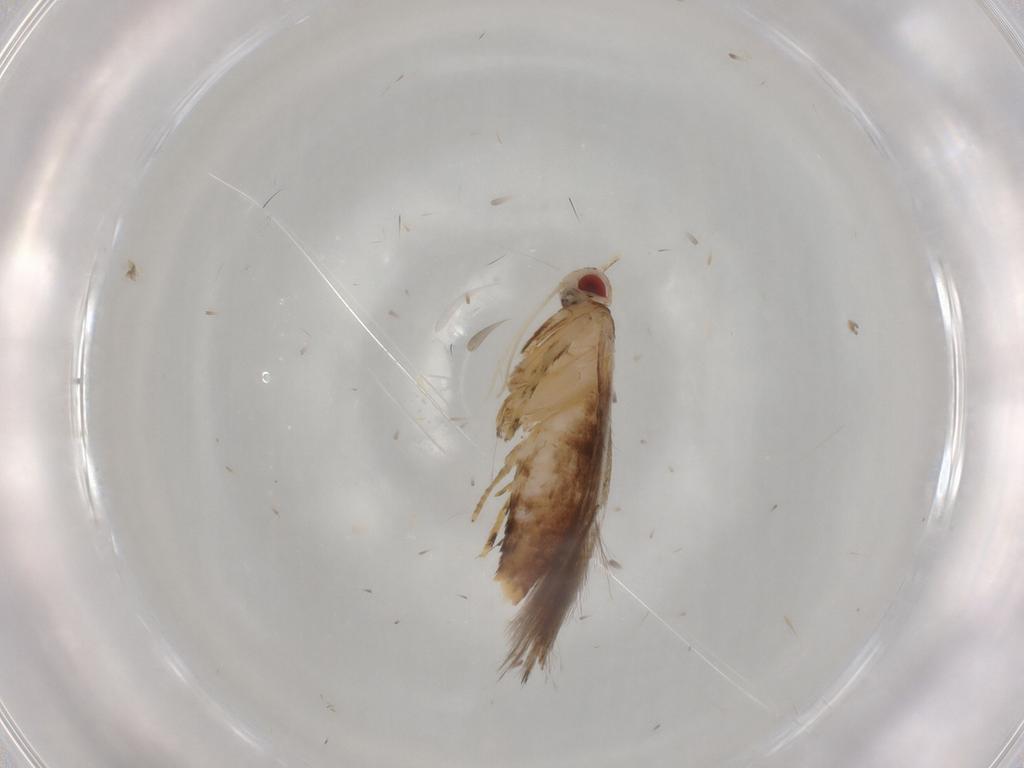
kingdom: Animalia
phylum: Arthropoda
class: Insecta
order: Lepidoptera
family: Cosmopterigidae
